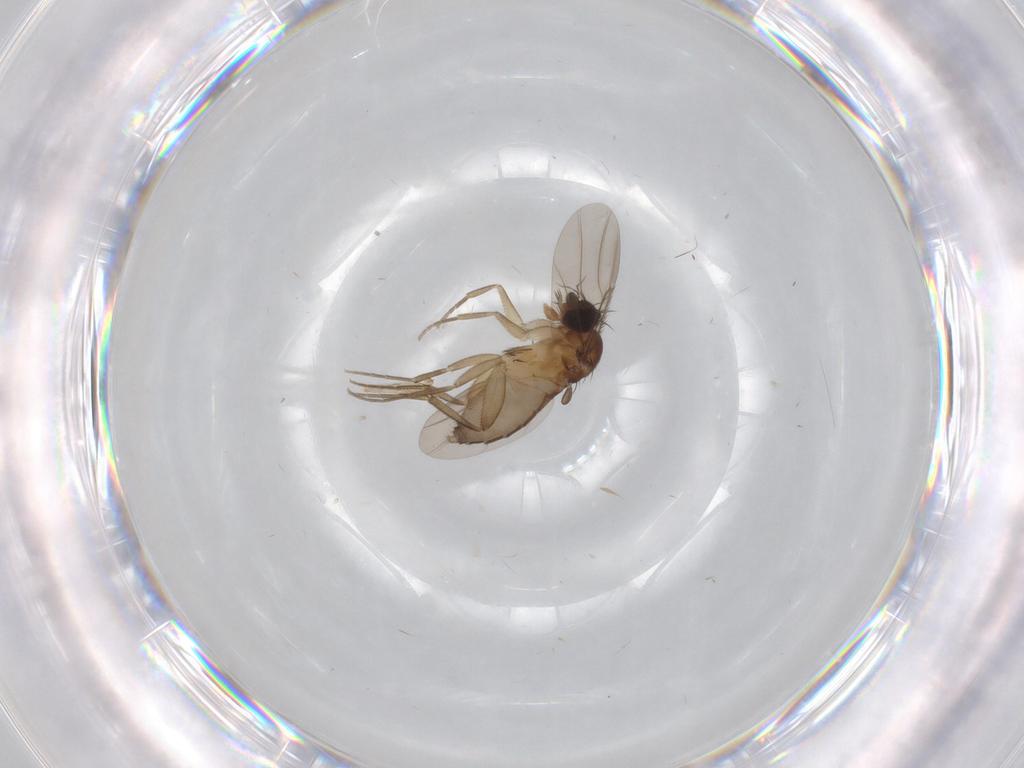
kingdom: Animalia
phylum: Arthropoda
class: Insecta
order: Diptera
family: Phoridae
